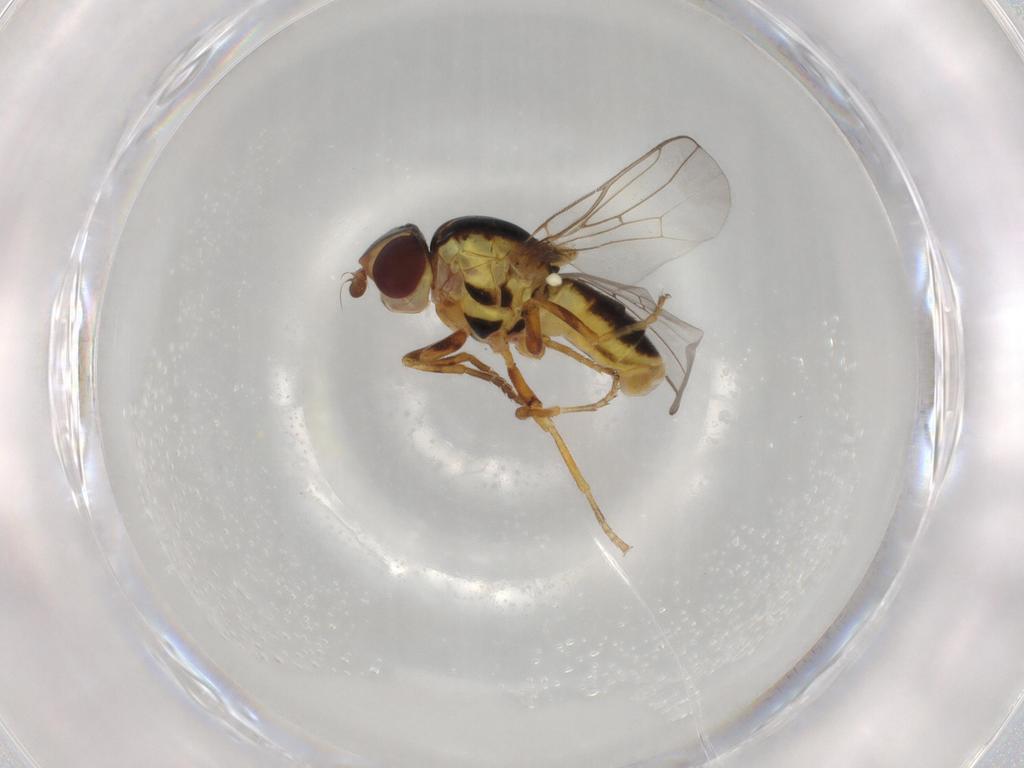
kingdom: Animalia
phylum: Arthropoda
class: Insecta
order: Diptera
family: Chloropidae
